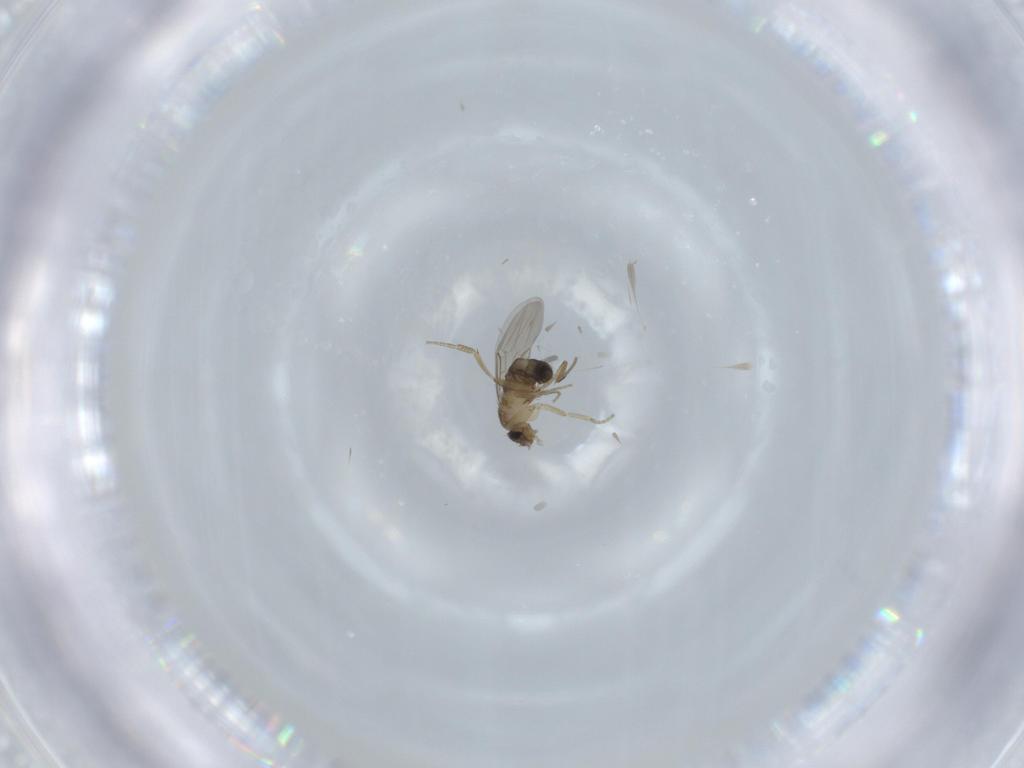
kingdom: Animalia
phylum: Arthropoda
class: Insecta
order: Diptera
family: Phoridae
